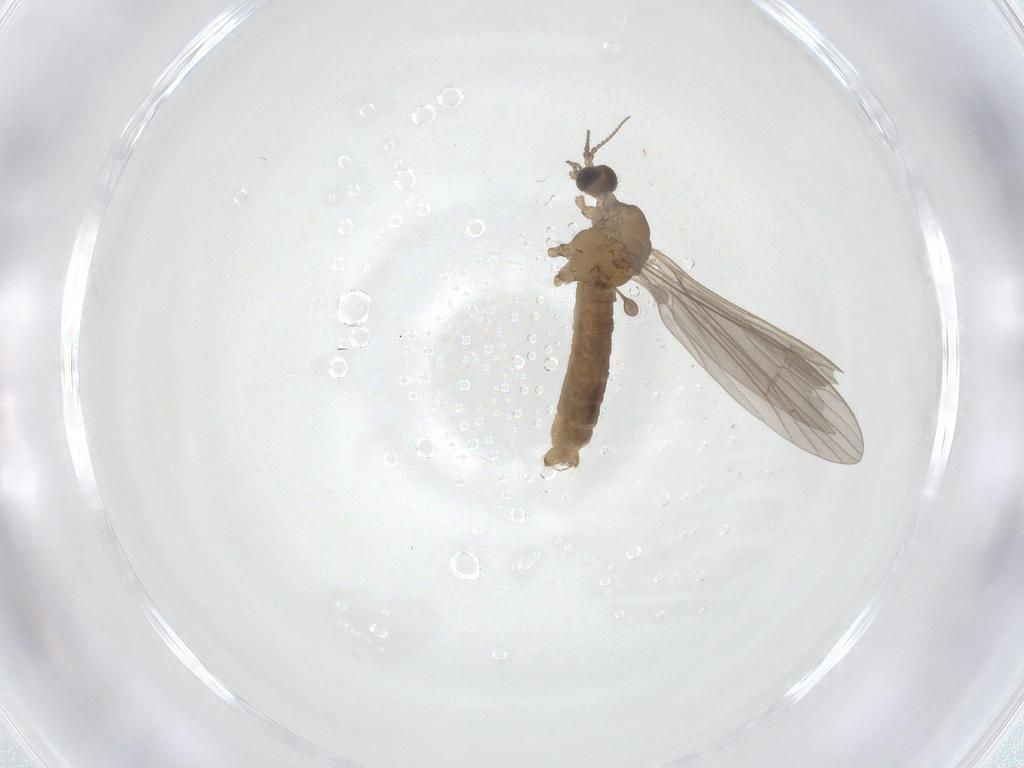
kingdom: Animalia
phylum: Arthropoda
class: Insecta
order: Diptera
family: Limoniidae
